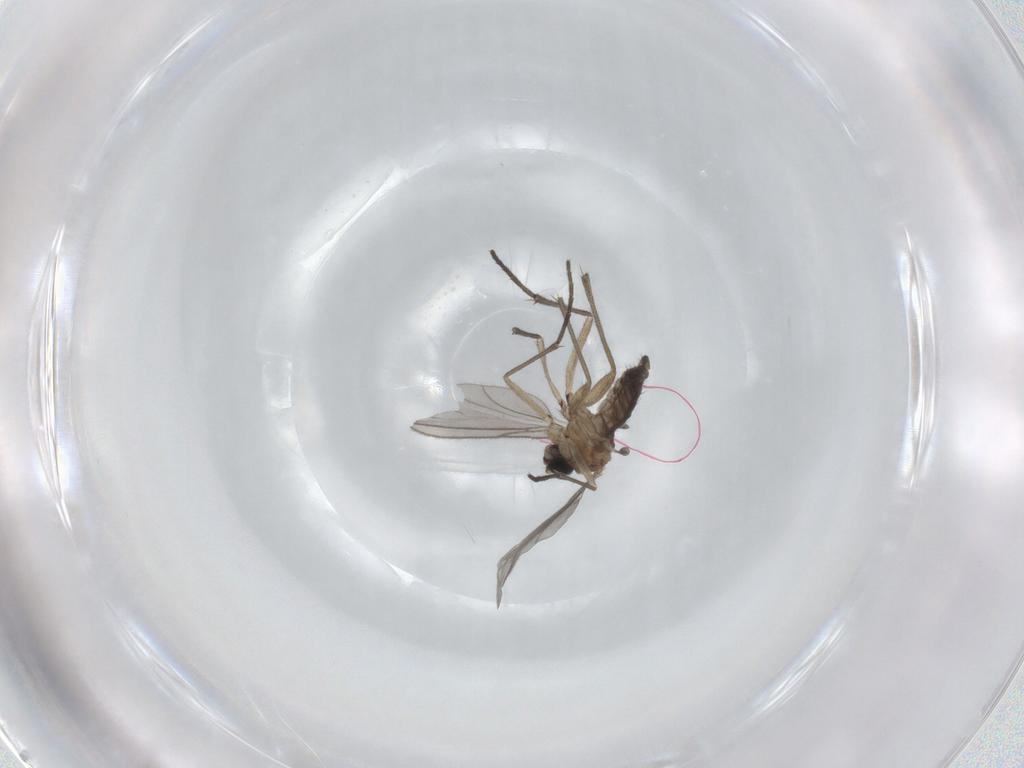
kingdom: Animalia
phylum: Arthropoda
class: Insecta
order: Diptera
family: Sciaridae
